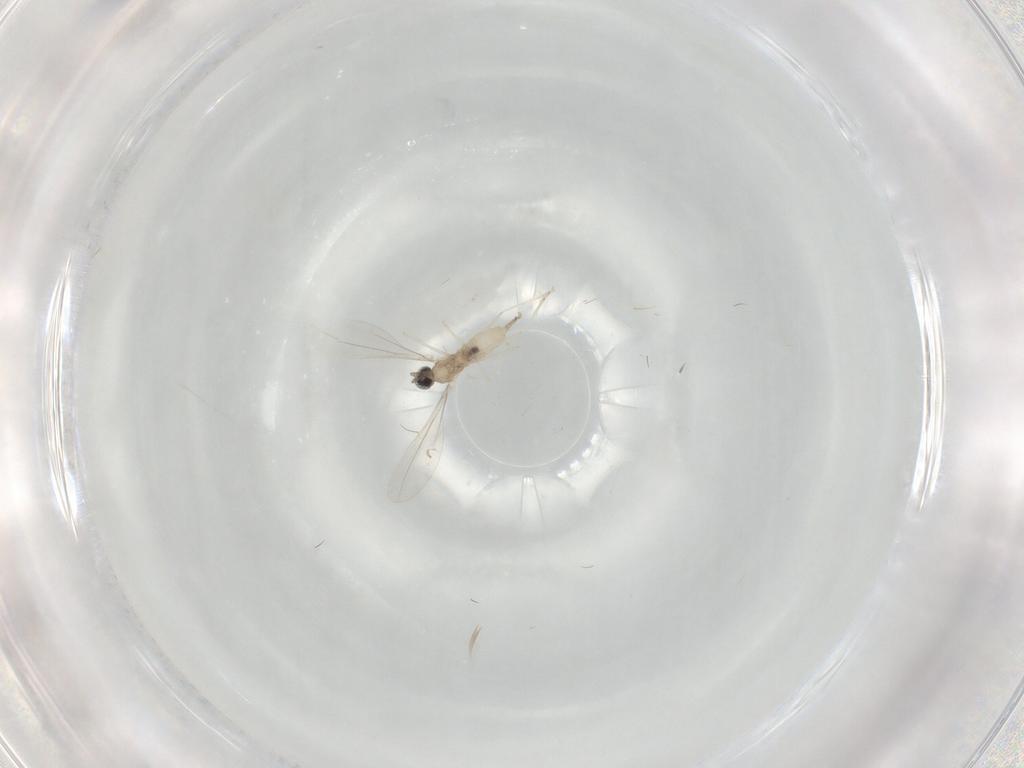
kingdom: Animalia
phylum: Arthropoda
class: Insecta
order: Diptera
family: Cecidomyiidae
